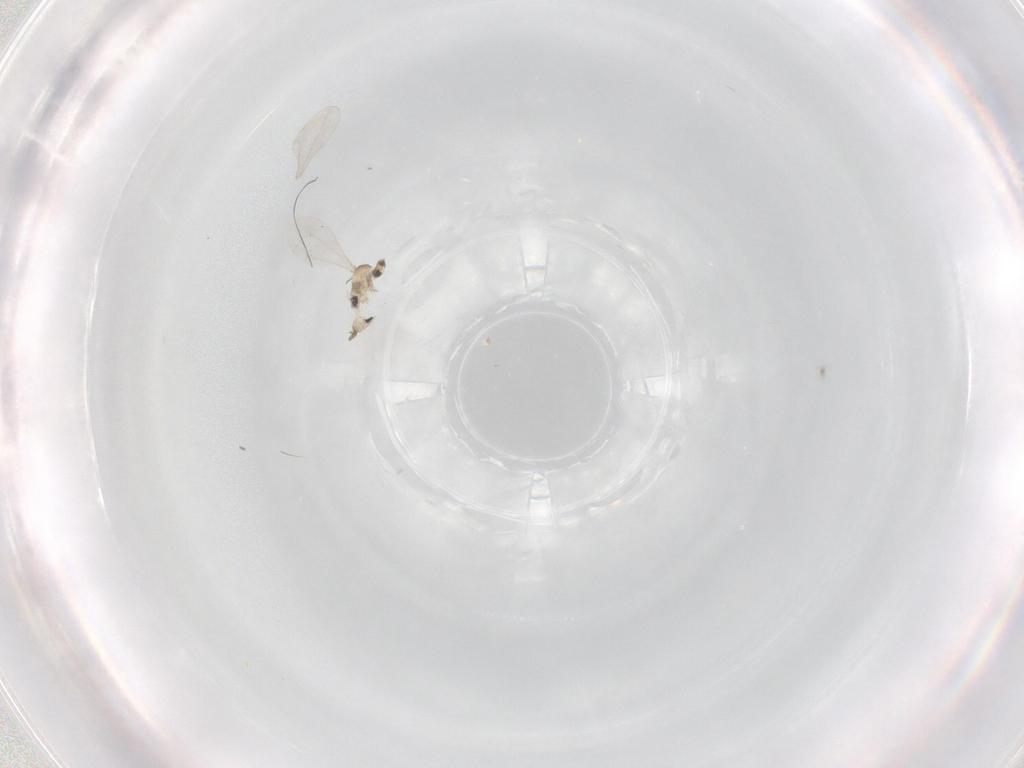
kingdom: Animalia
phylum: Arthropoda
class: Insecta
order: Diptera
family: Cecidomyiidae
